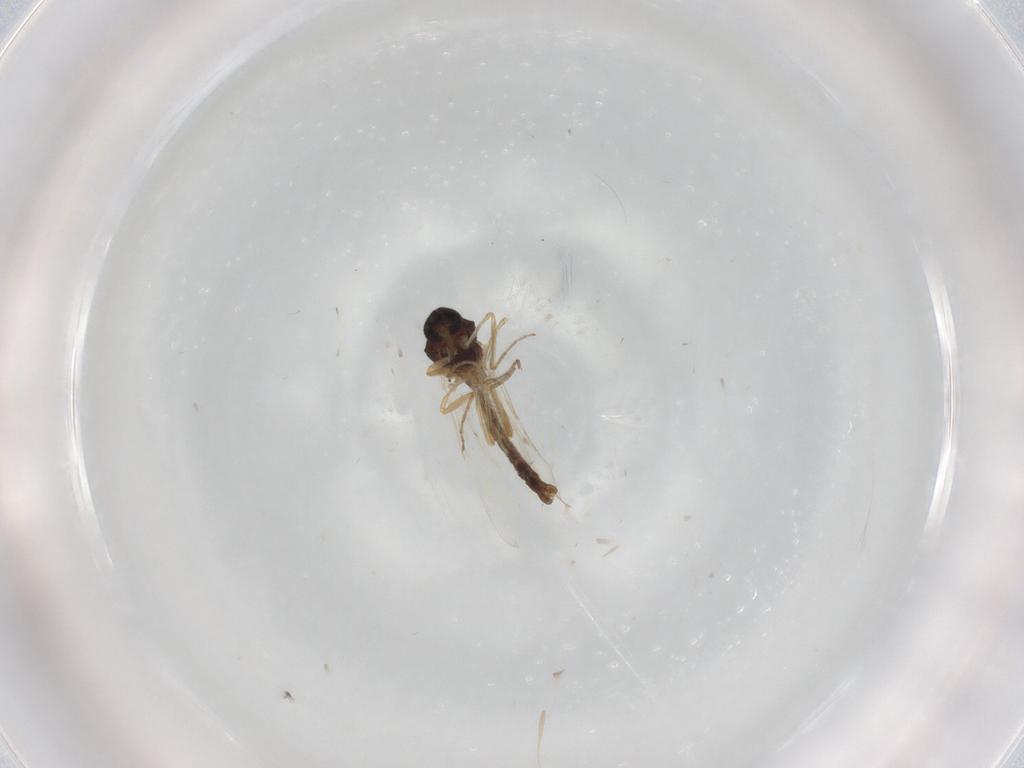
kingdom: Animalia
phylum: Arthropoda
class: Insecta
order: Diptera
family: Ceratopogonidae
